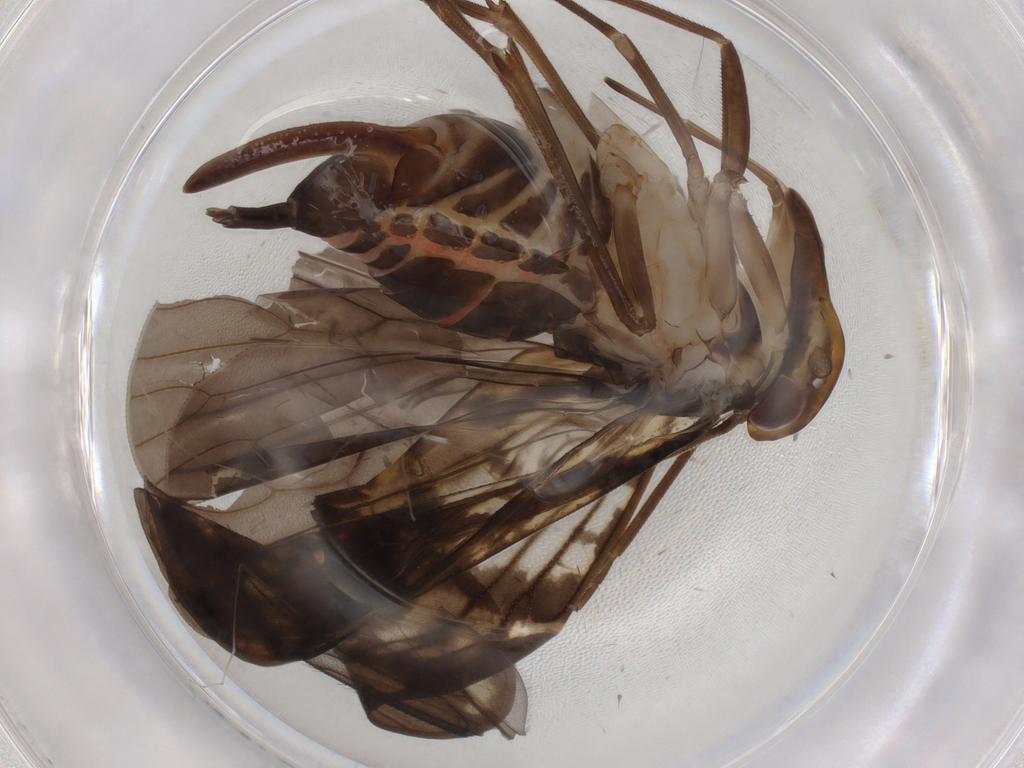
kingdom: Animalia
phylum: Arthropoda
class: Insecta
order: Hemiptera
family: Cixiidae
